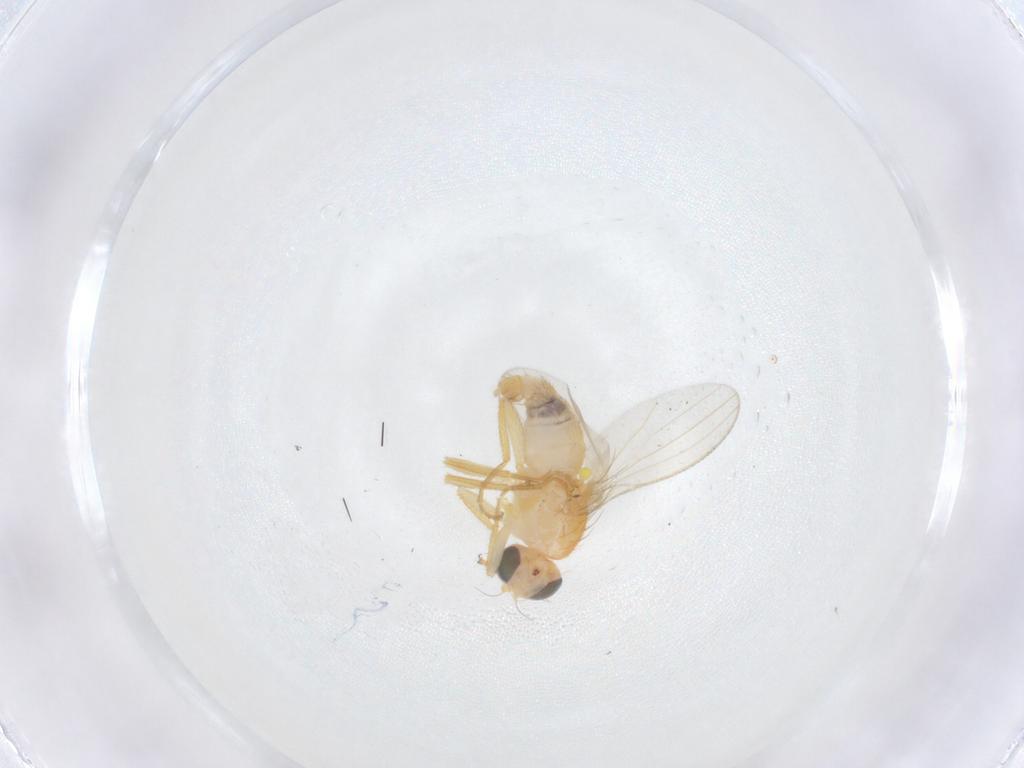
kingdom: Animalia
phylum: Arthropoda
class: Insecta
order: Diptera
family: Chyromyidae
